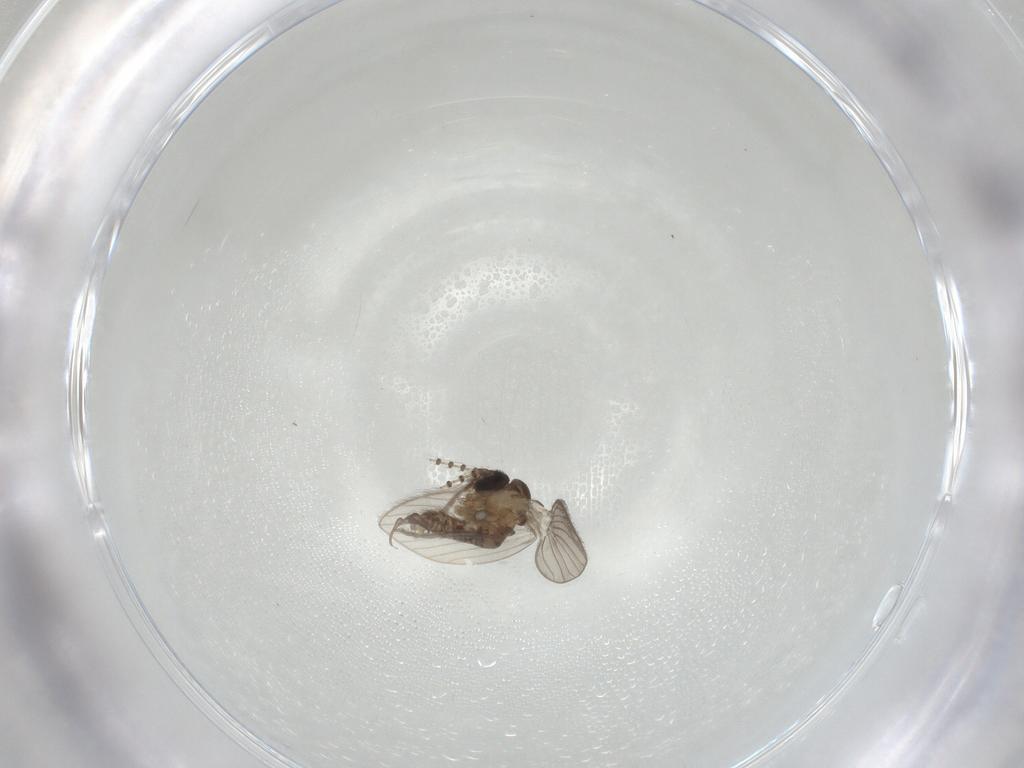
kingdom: Animalia
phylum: Arthropoda
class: Insecta
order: Diptera
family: Psychodidae
